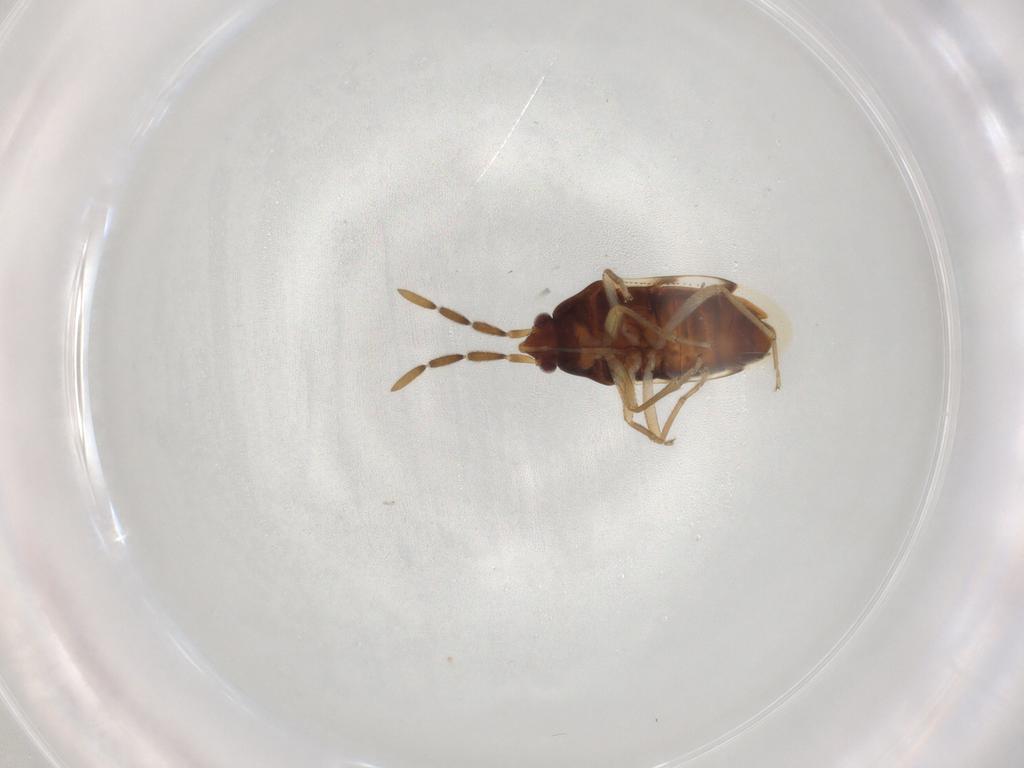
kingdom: Animalia
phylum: Arthropoda
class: Insecta
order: Hemiptera
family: Rhyparochromidae
